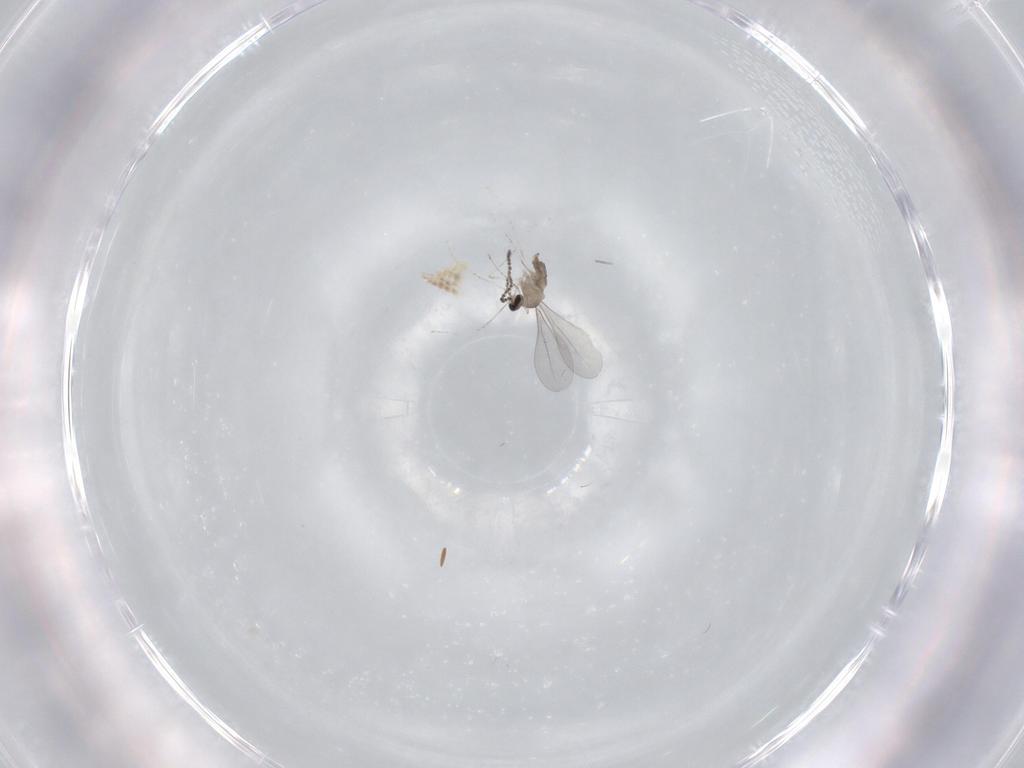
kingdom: Animalia
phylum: Arthropoda
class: Insecta
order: Diptera
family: Cecidomyiidae
